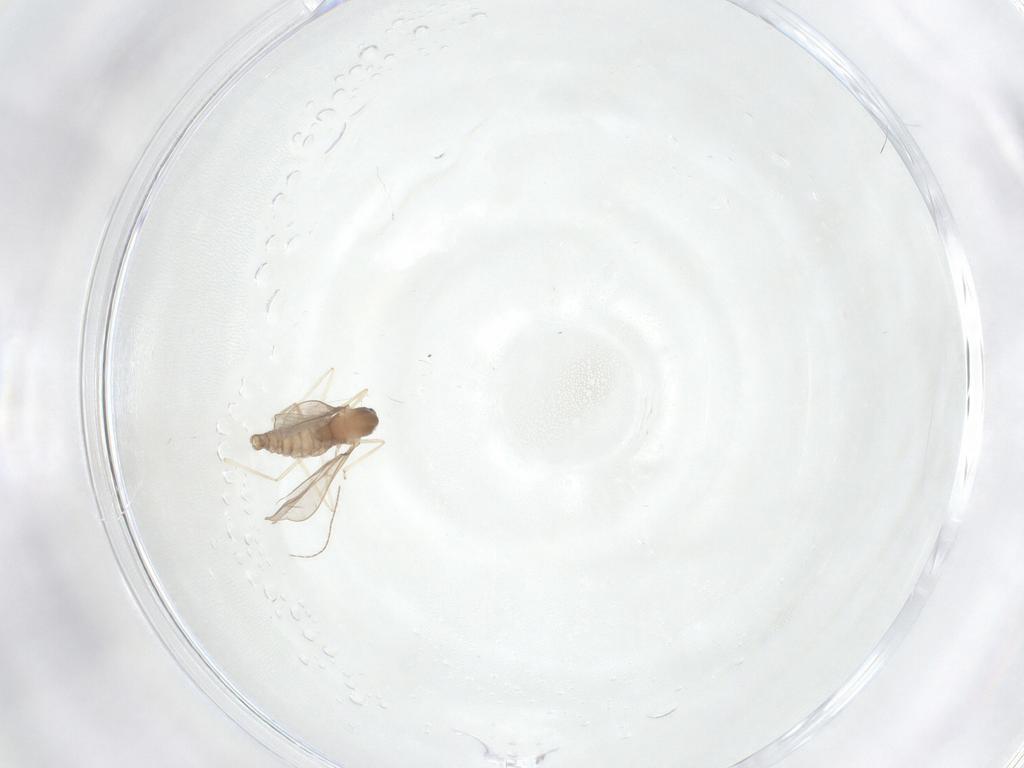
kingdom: Animalia
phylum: Arthropoda
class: Insecta
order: Diptera
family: Cecidomyiidae
